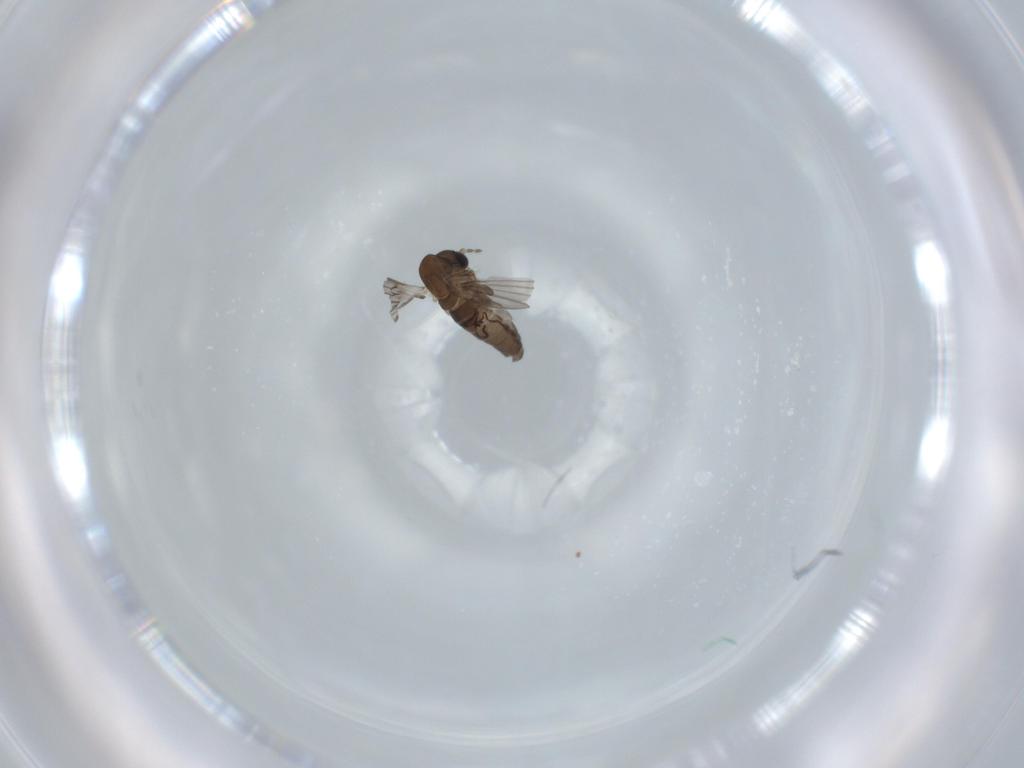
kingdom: Animalia
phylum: Arthropoda
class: Insecta
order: Diptera
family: Psychodidae
